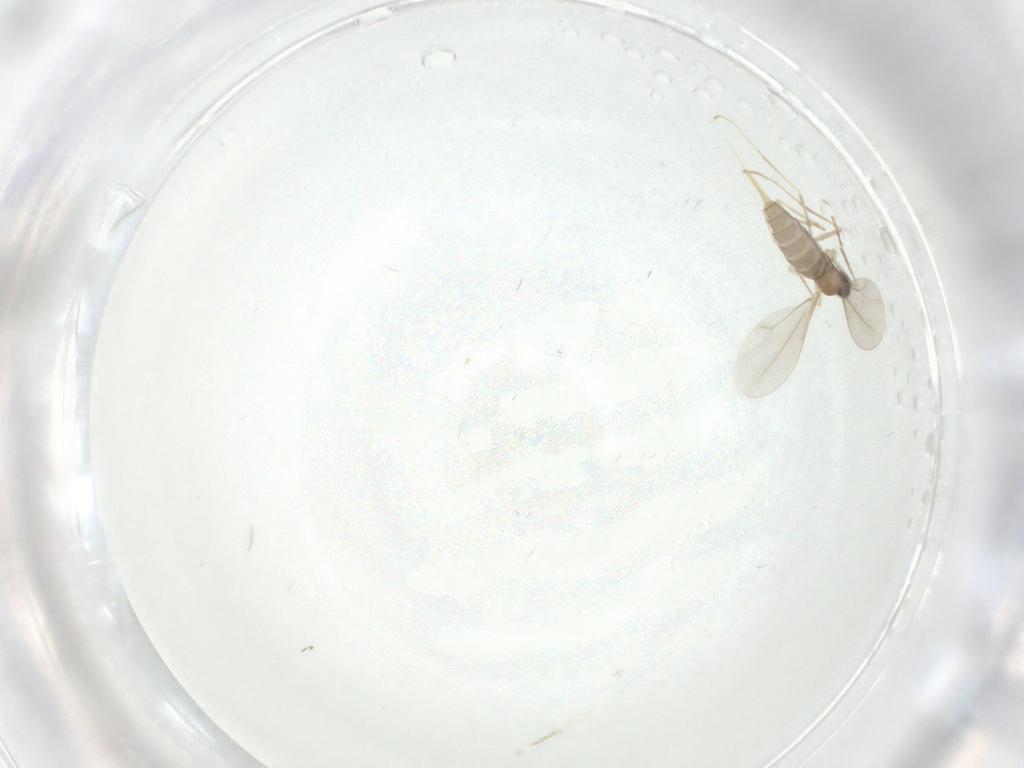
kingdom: Animalia
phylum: Arthropoda
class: Insecta
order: Diptera
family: Cecidomyiidae
